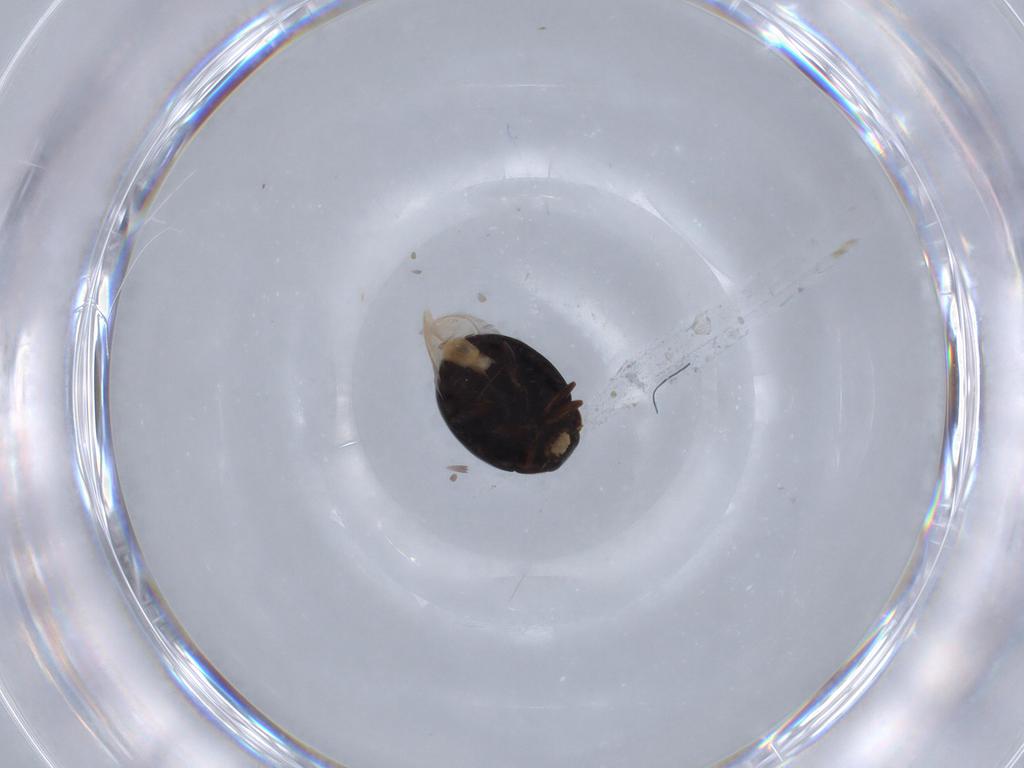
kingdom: Animalia
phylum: Arthropoda
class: Insecta
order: Coleoptera
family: Coccinellidae
